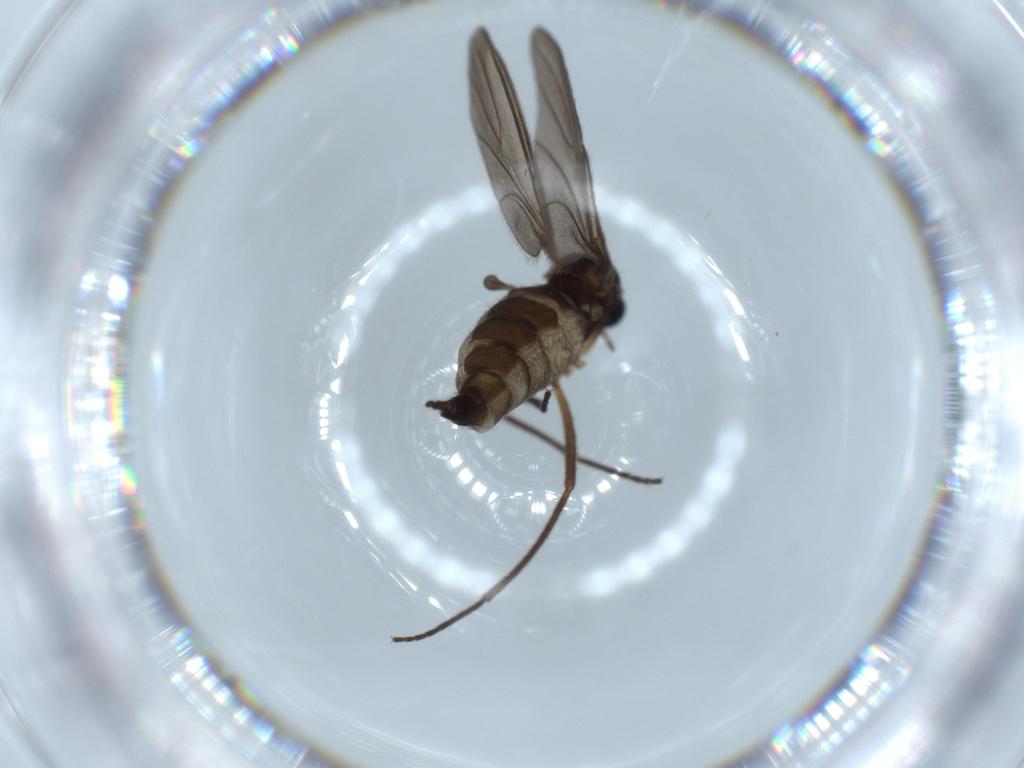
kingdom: Animalia
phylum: Arthropoda
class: Insecta
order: Diptera
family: Sciaridae
